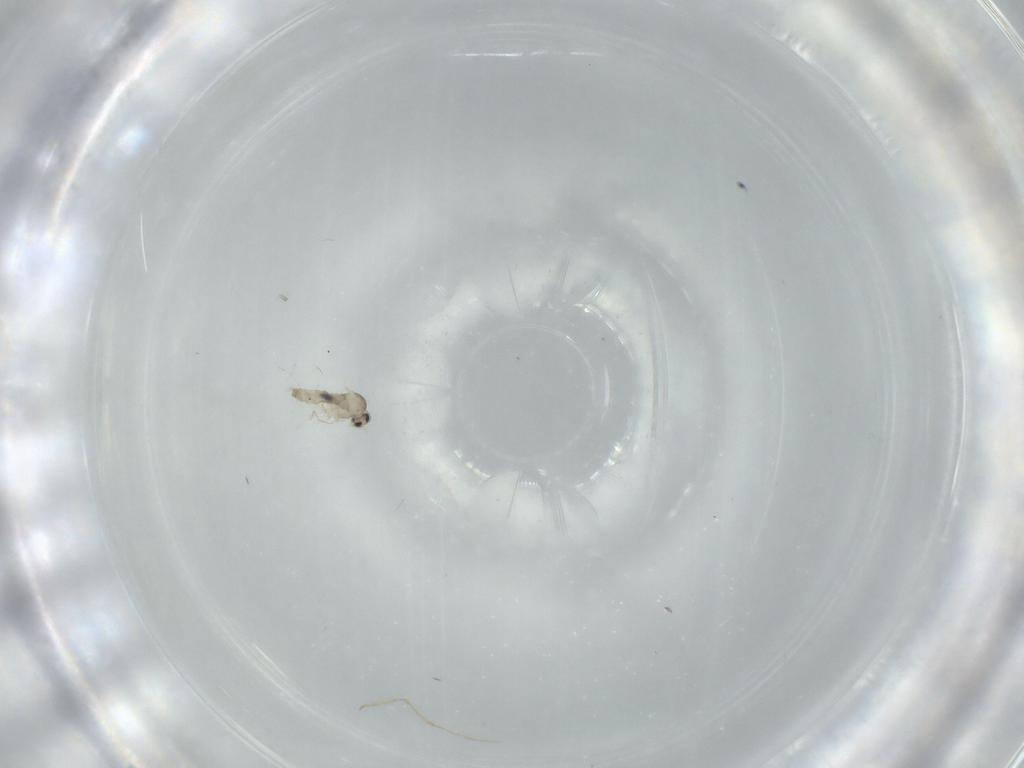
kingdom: Animalia
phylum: Arthropoda
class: Insecta
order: Diptera
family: Cecidomyiidae
